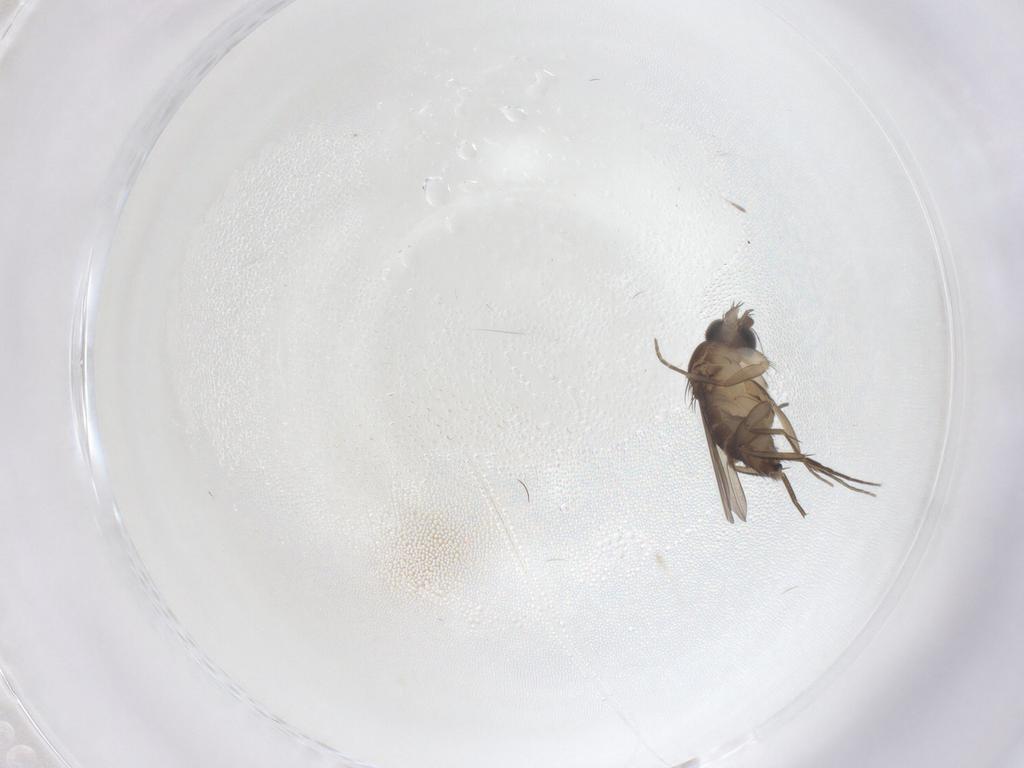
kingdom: Animalia
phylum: Arthropoda
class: Insecta
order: Diptera
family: Phoridae
